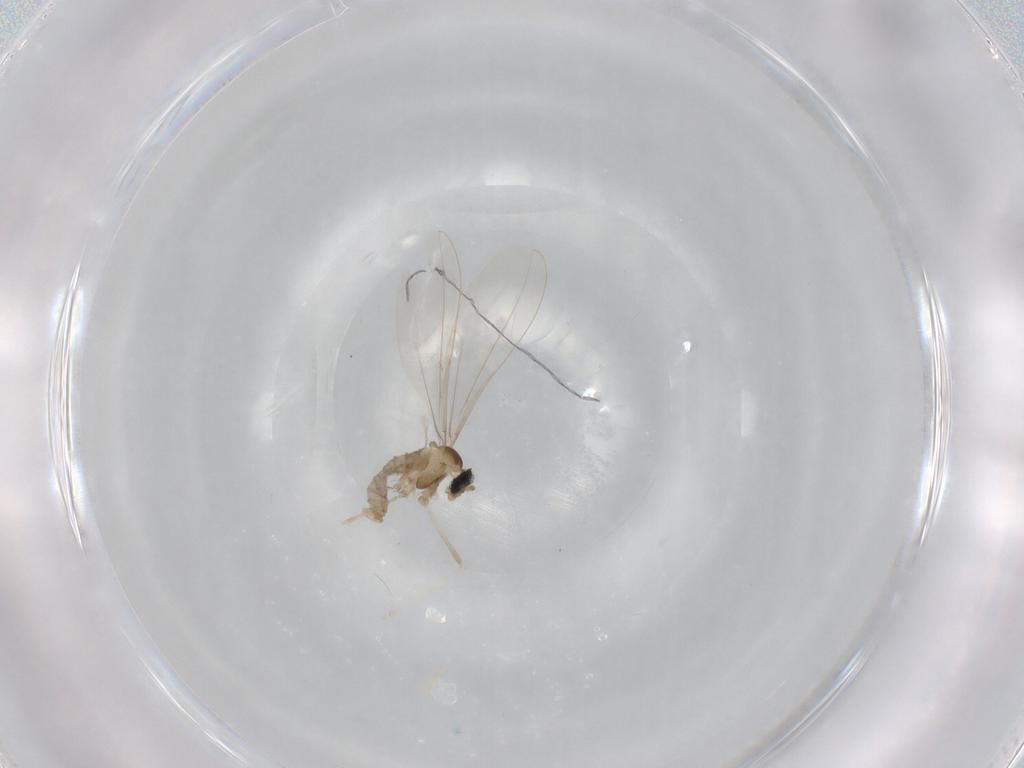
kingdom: Animalia
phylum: Arthropoda
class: Insecta
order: Diptera
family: Cecidomyiidae
